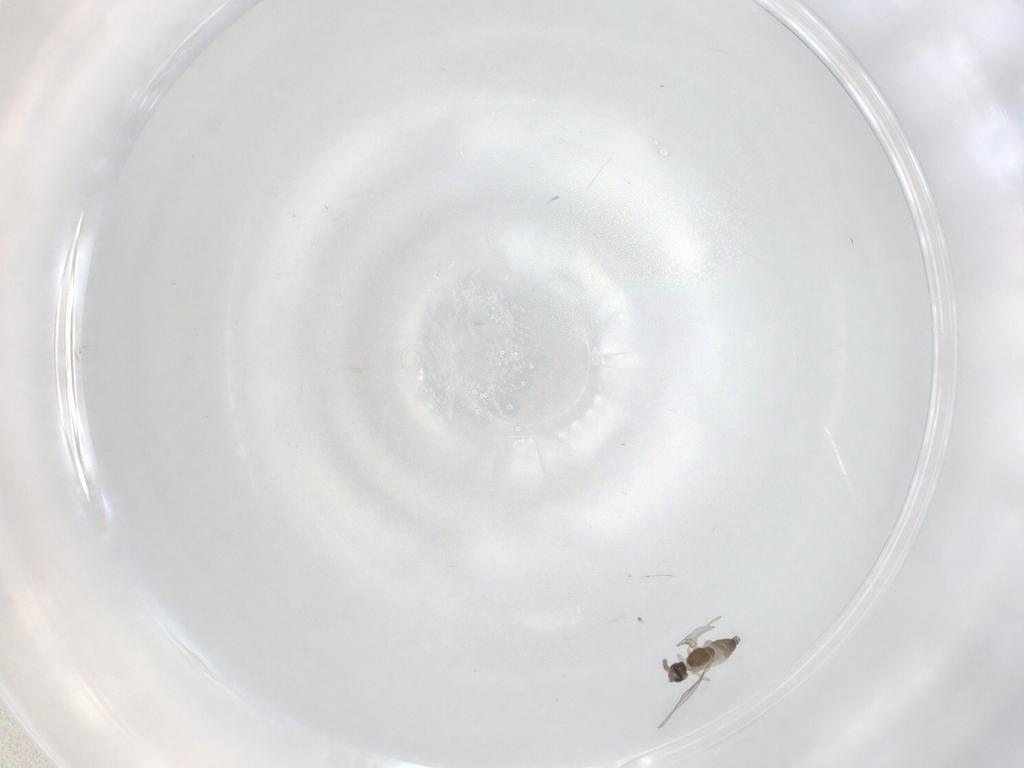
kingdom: Animalia
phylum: Arthropoda
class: Insecta
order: Diptera
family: Cecidomyiidae
